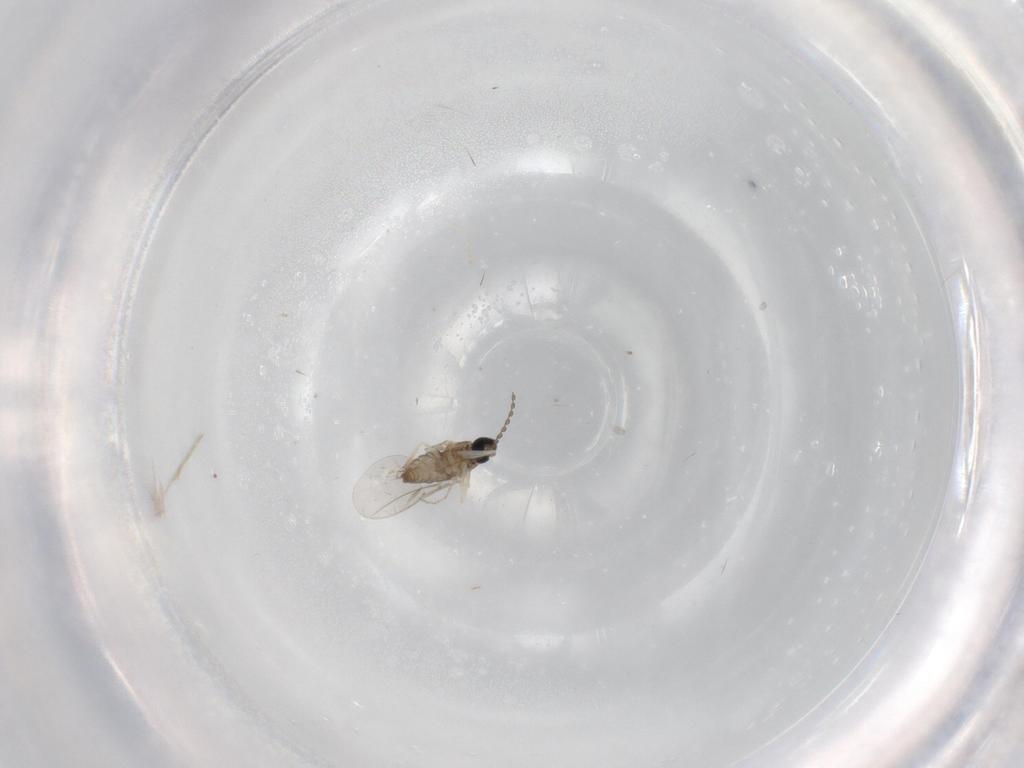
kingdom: Animalia
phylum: Arthropoda
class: Insecta
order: Diptera
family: Cecidomyiidae
